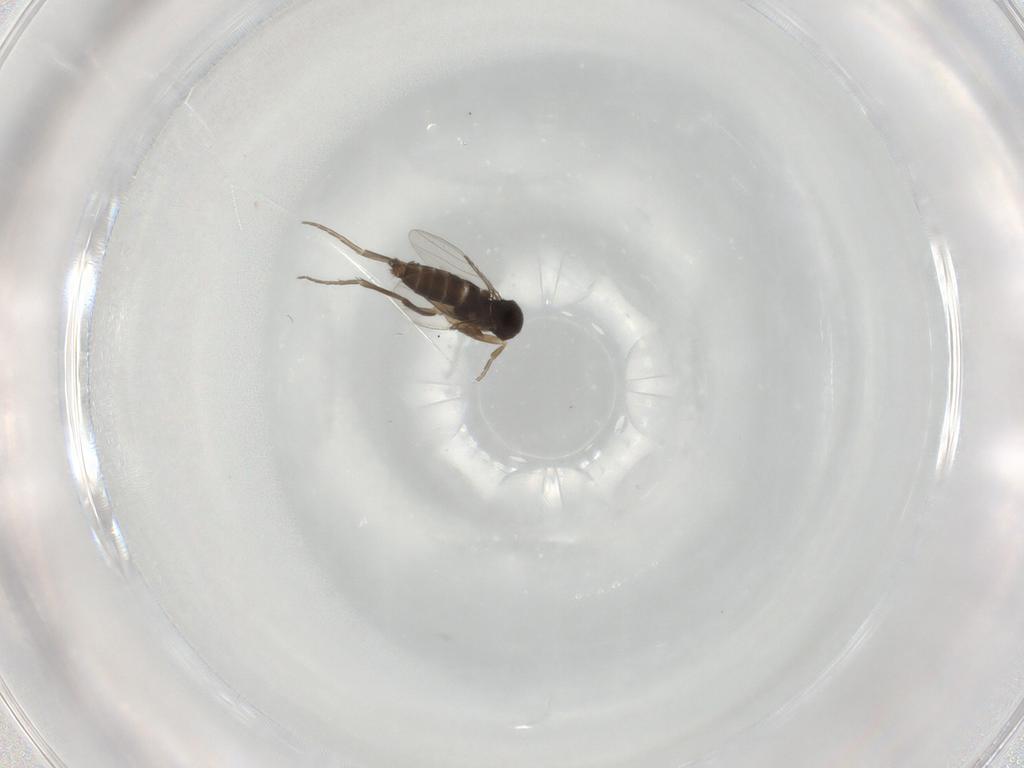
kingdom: Animalia
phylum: Arthropoda
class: Insecta
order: Diptera
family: Phoridae
